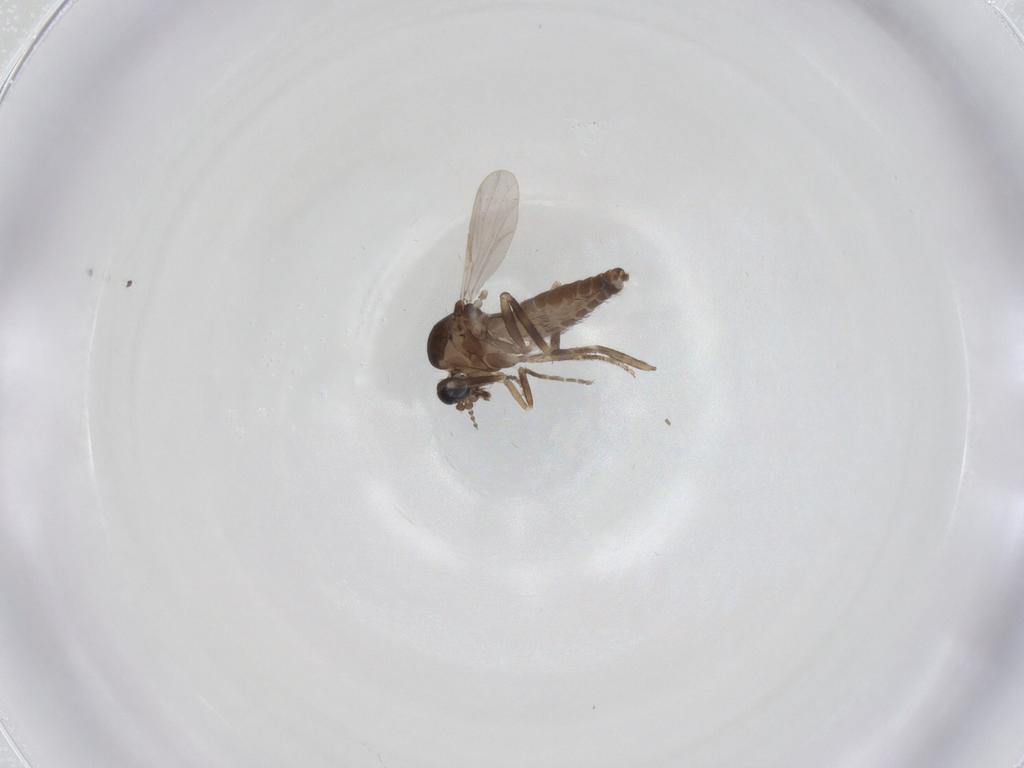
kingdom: Animalia
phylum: Arthropoda
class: Insecta
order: Diptera
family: Ceratopogonidae
